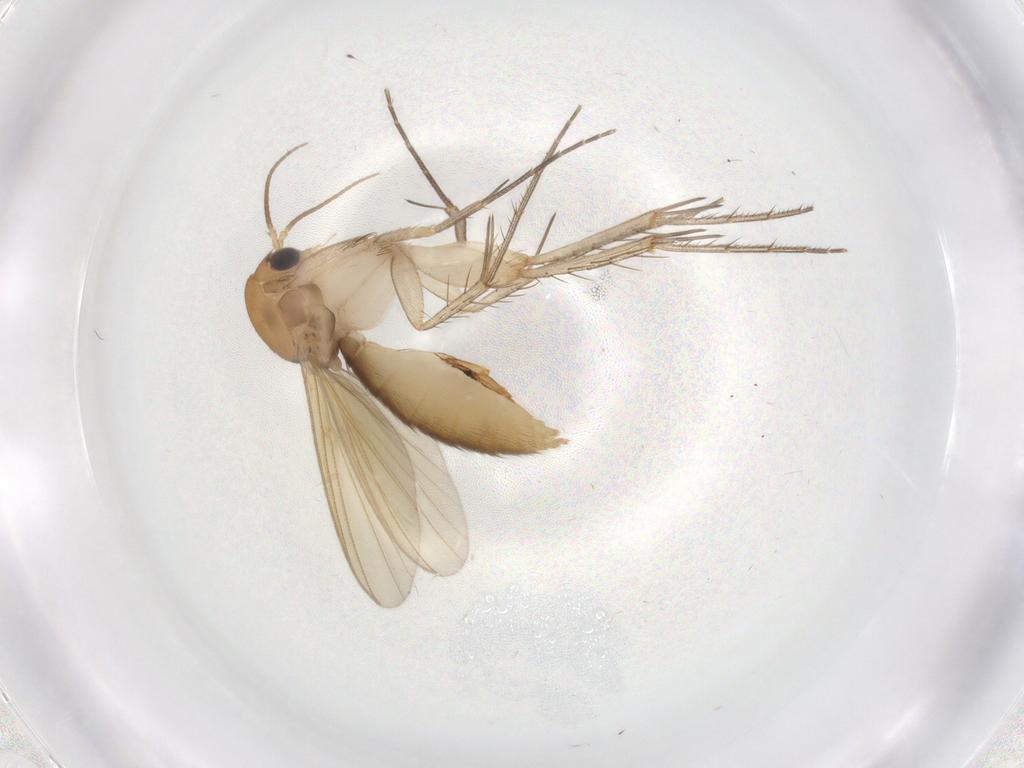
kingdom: Animalia
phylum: Arthropoda
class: Insecta
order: Diptera
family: Mycetophilidae
